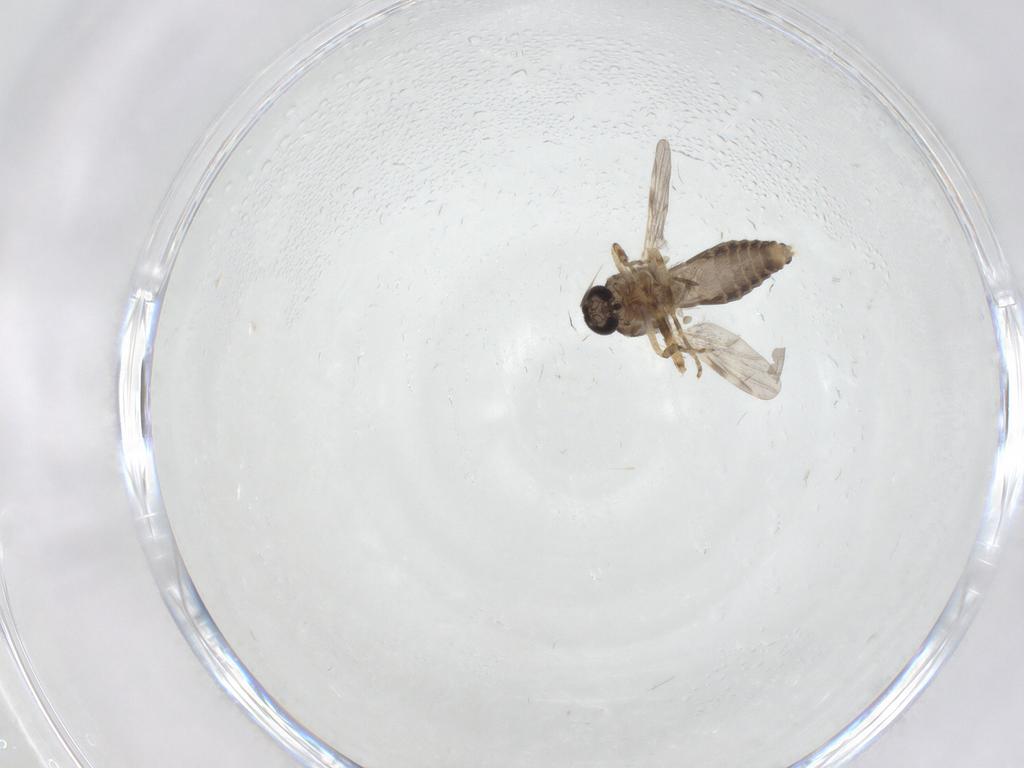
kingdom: Animalia
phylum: Arthropoda
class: Insecta
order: Diptera
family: Ceratopogonidae
